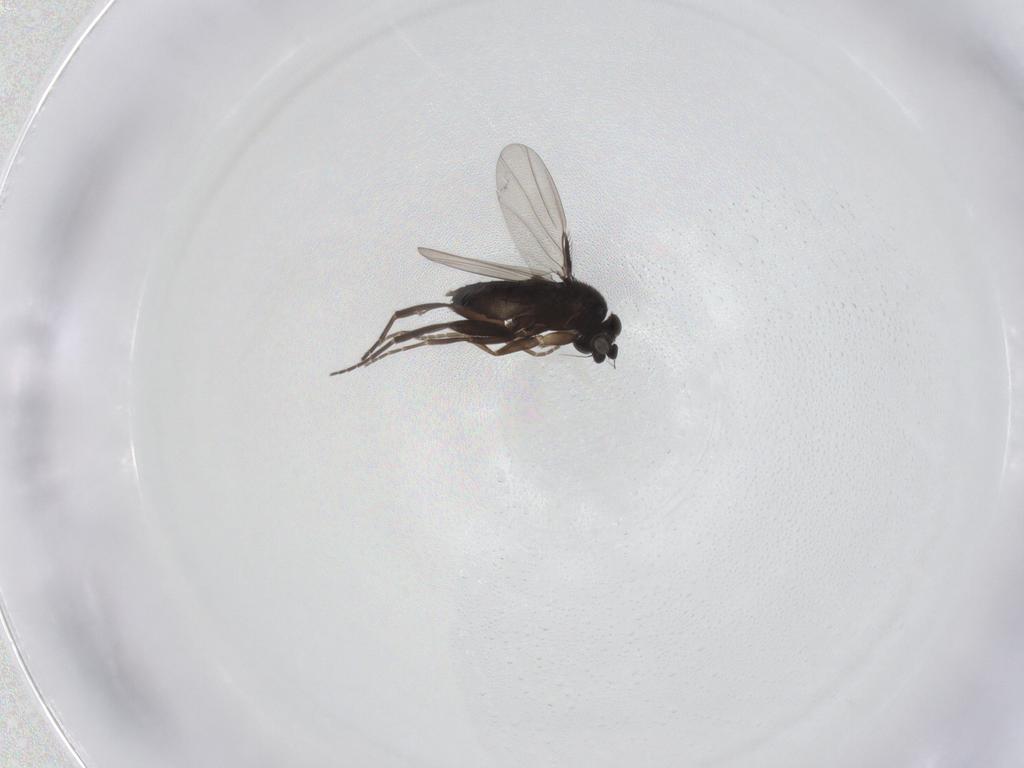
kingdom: Animalia
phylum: Arthropoda
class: Insecta
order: Diptera
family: Phoridae
